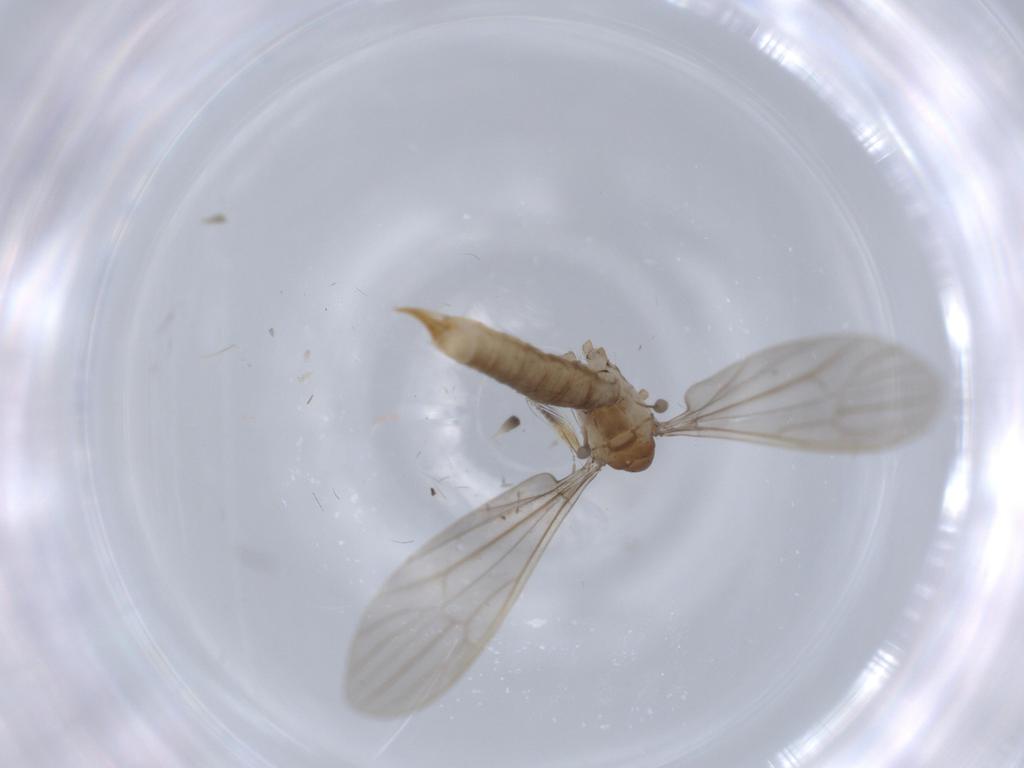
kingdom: Animalia
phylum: Arthropoda
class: Insecta
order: Diptera
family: Limoniidae
